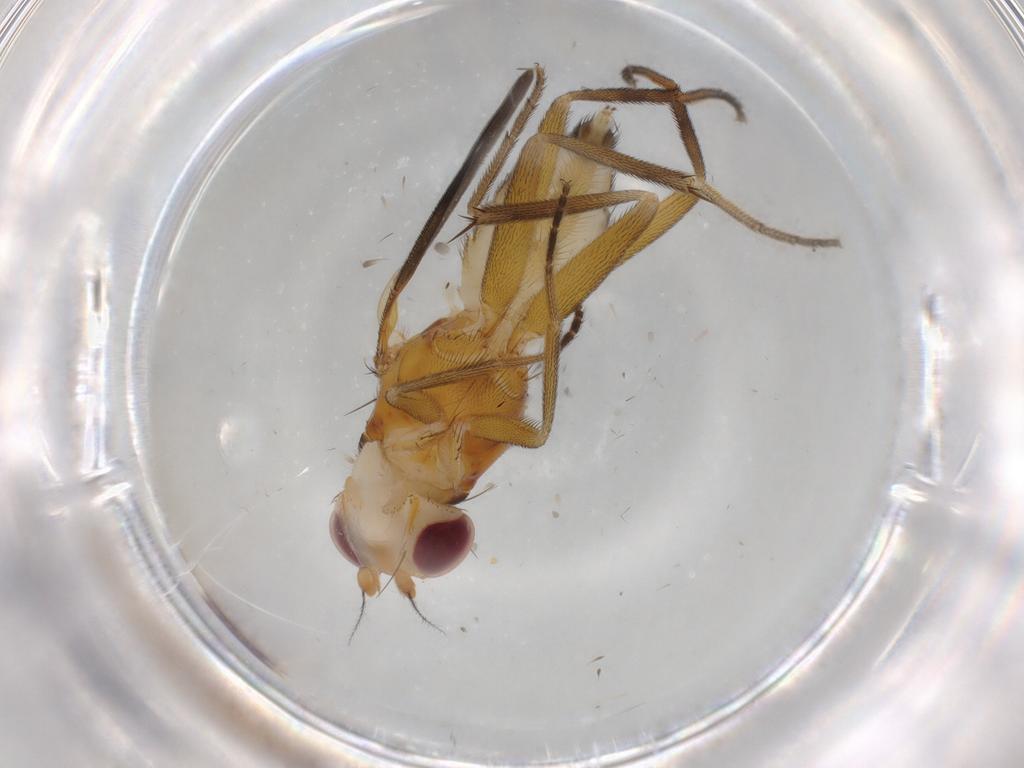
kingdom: Animalia
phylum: Arthropoda
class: Insecta
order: Diptera
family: Clusiidae
